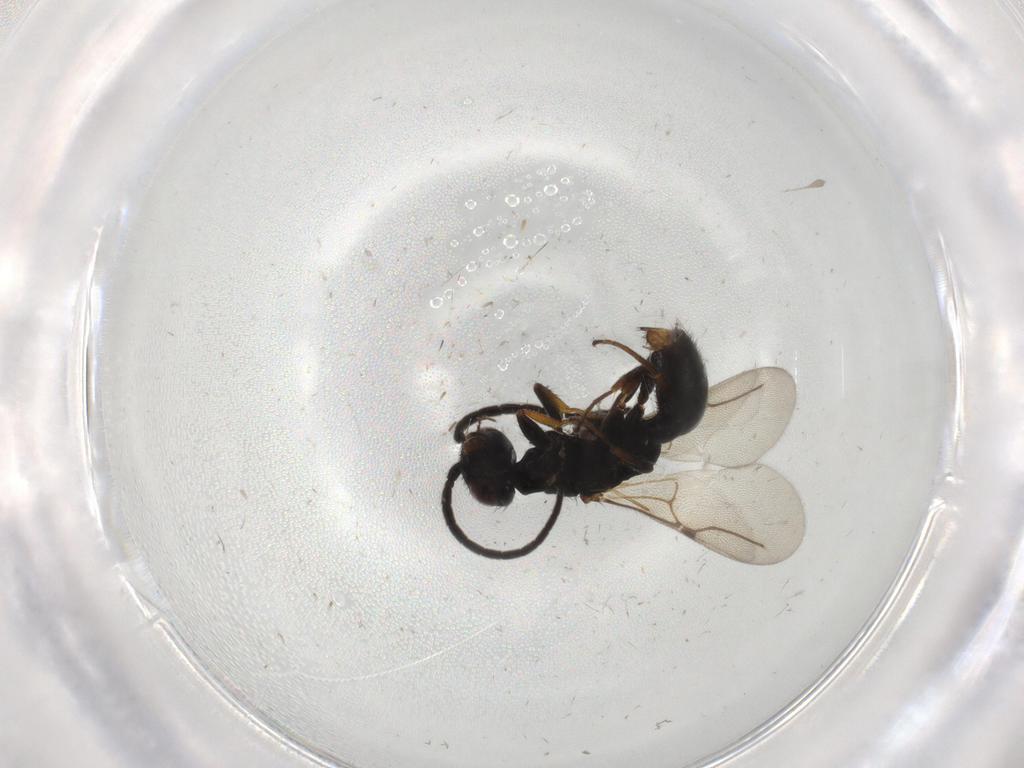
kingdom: Animalia
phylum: Arthropoda
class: Insecta
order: Hymenoptera
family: Bethylidae
